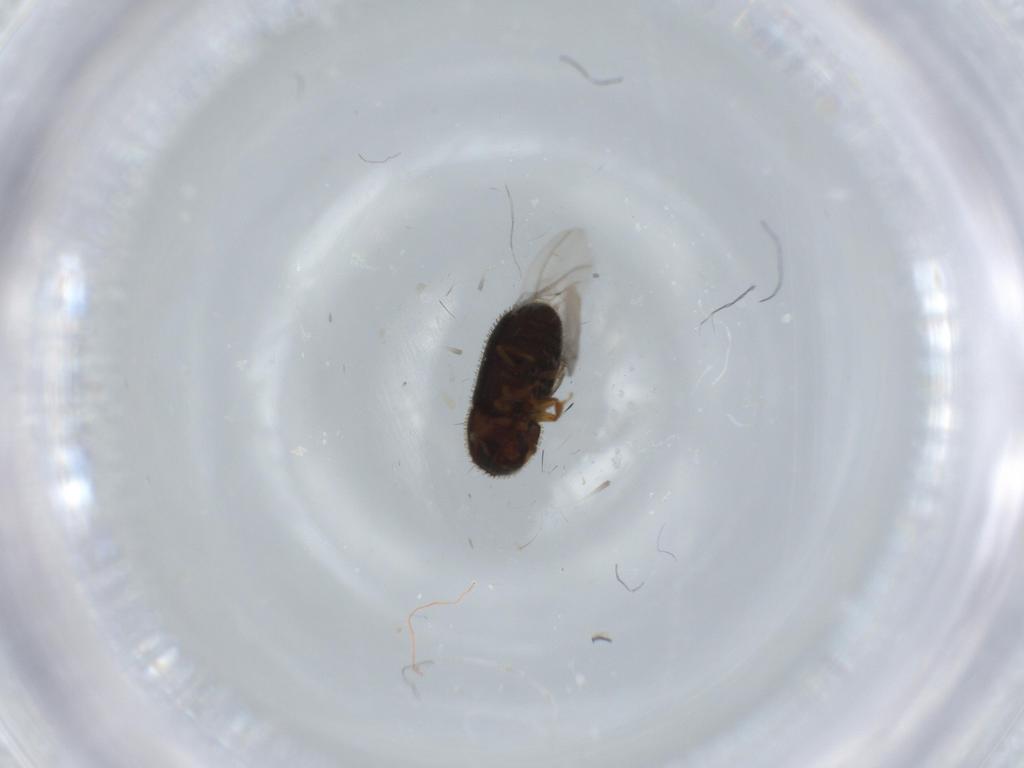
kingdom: Animalia
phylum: Arthropoda
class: Insecta
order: Coleoptera
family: Curculionidae
